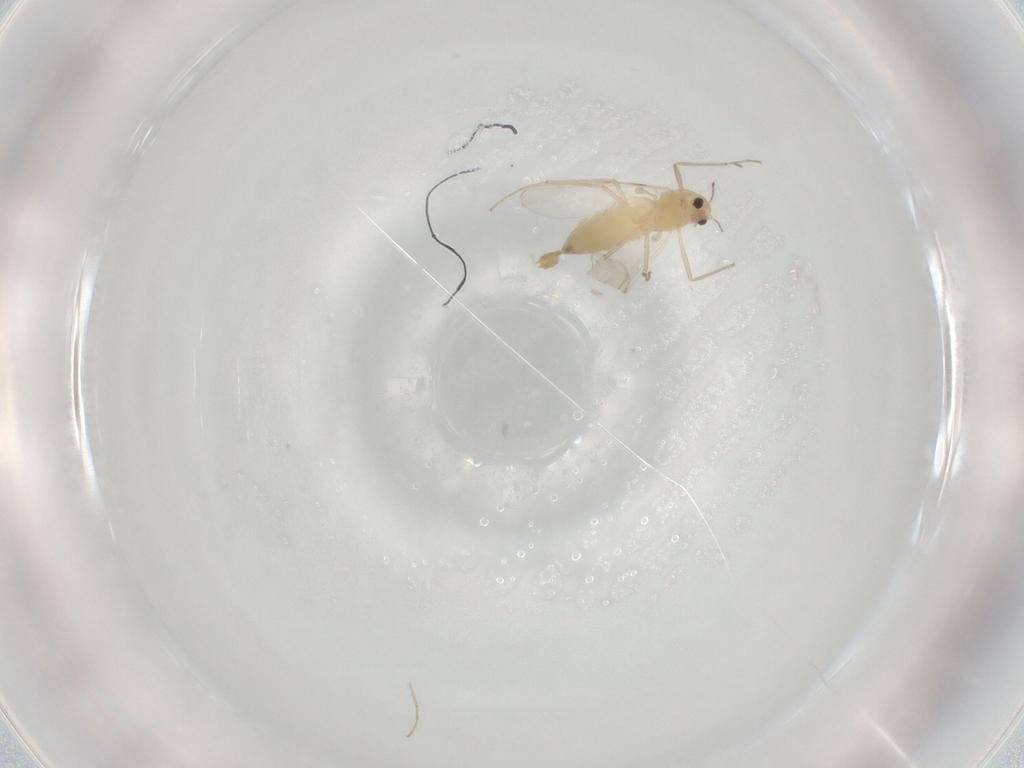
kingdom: Animalia
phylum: Arthropoda
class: Insecta
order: Diptera
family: Chironomidae
